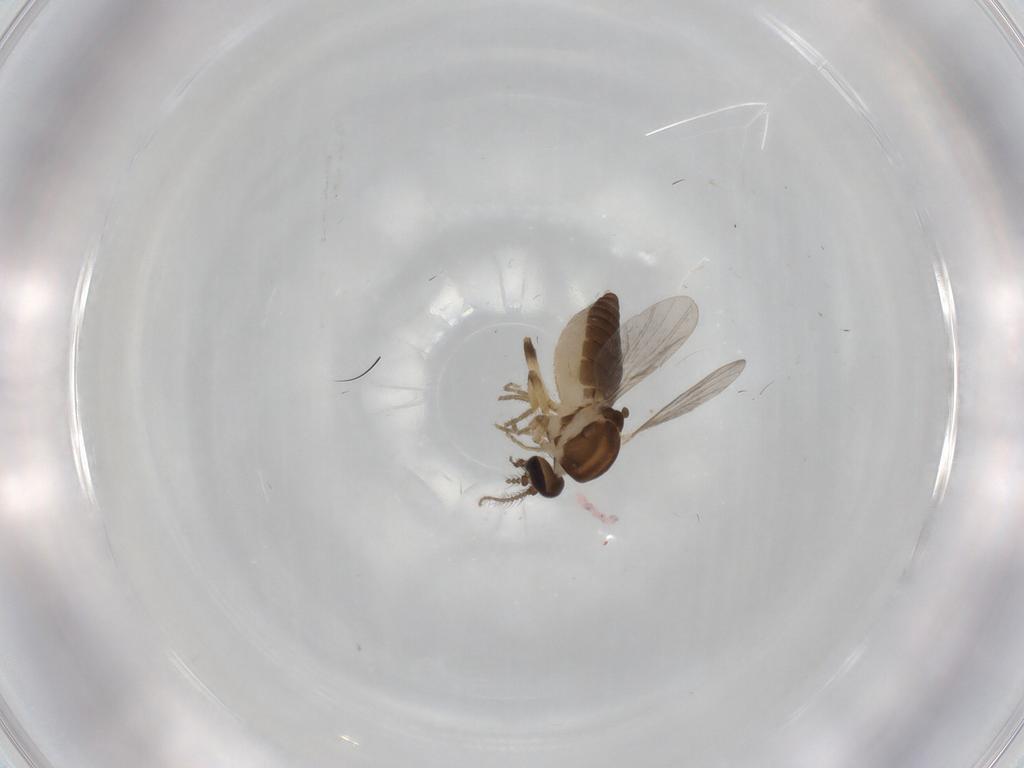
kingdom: Animalia
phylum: Arthropoda
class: Insecta
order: Diptera
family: Ceratopogonidae
